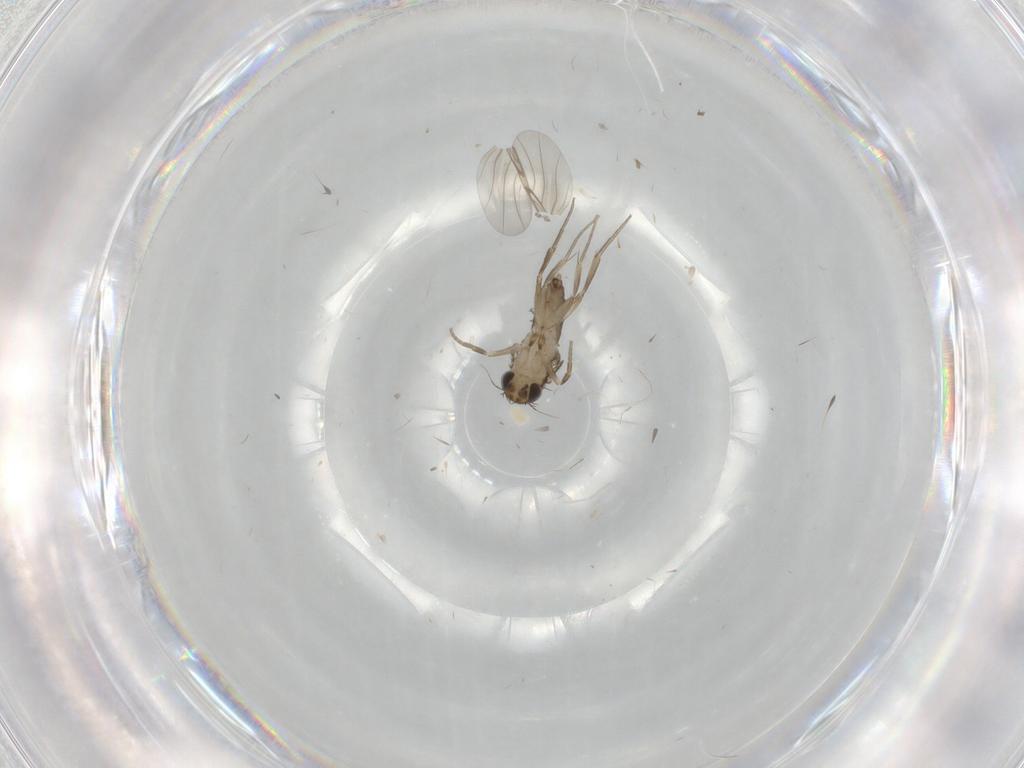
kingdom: Animalia
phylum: Arthropoda
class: Insecta
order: Diptera
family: Phoridae
